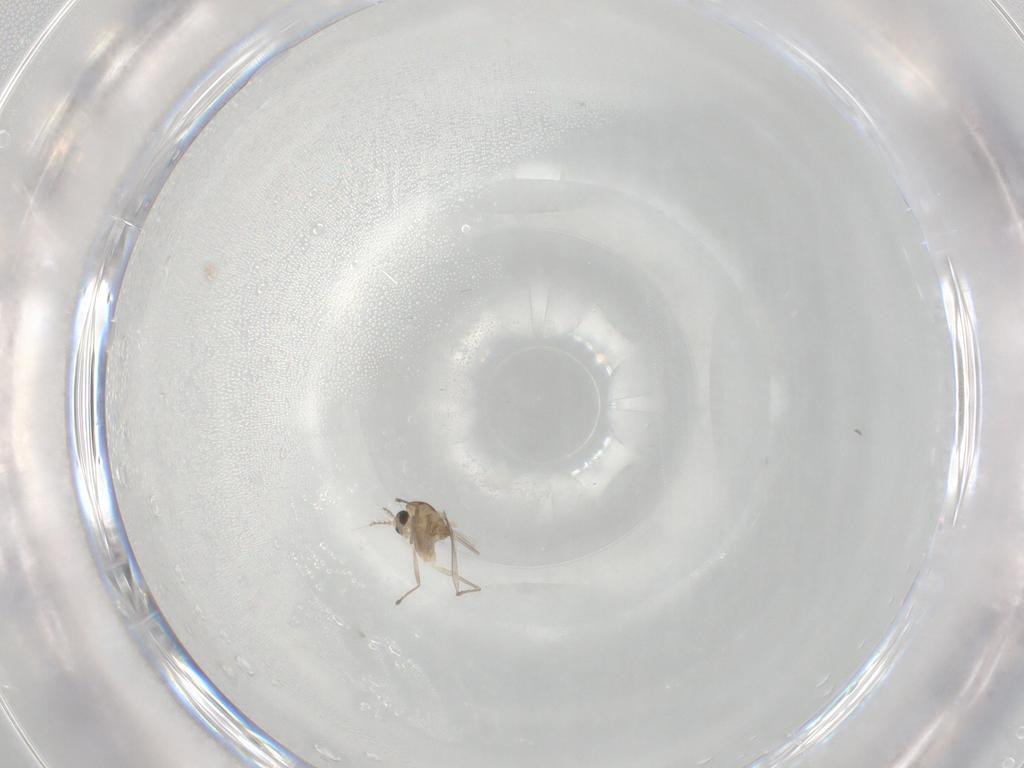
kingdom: Animalia
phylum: Arthropoda
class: Insecta
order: Diptera
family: Chironomidae
